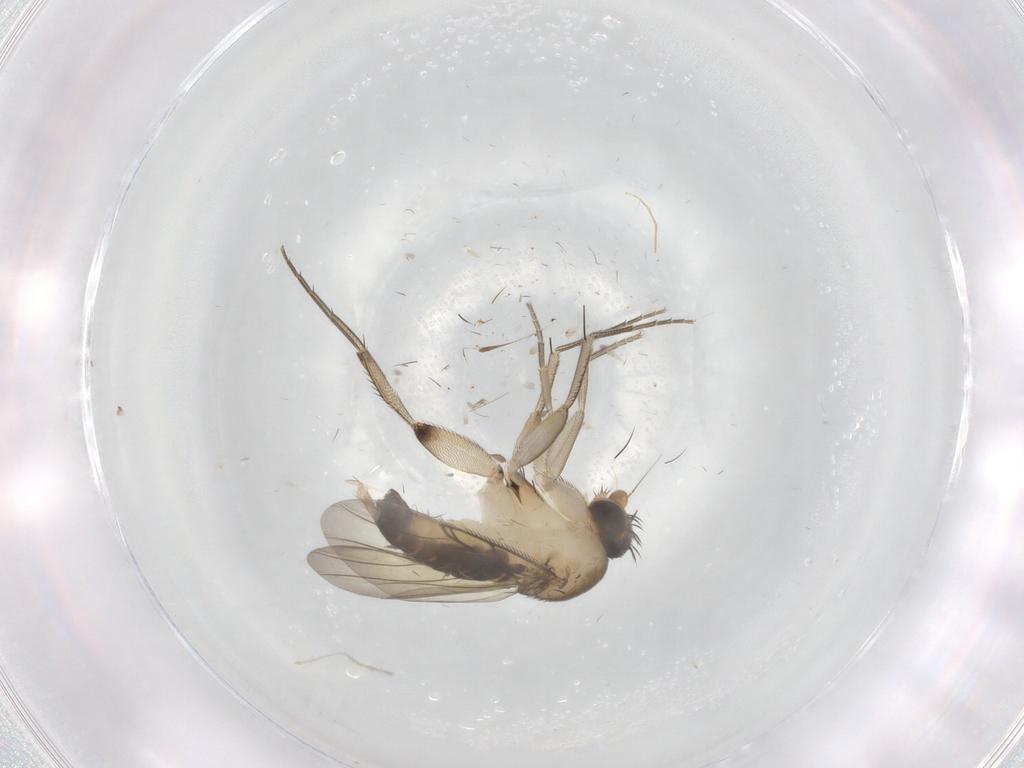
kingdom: Animalia
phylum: Arthropoda
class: Insecta
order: Diptera
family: Phoridae
